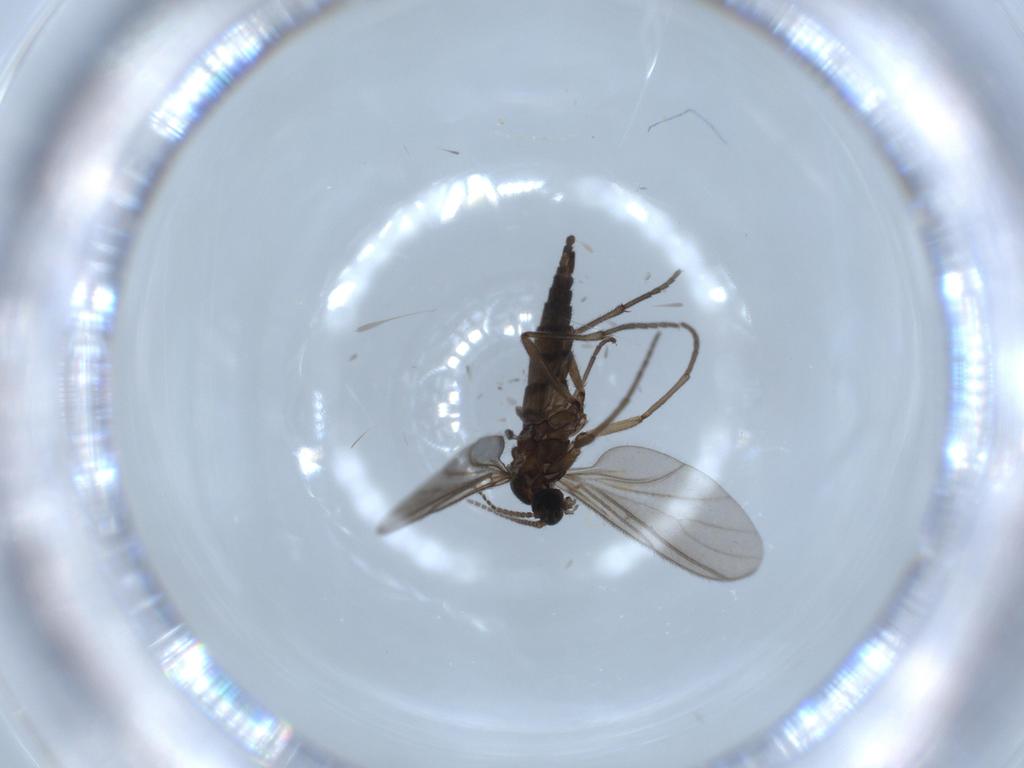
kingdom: Animalia
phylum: Arthropoda
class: Insecta
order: Diptera
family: Sciaridae
